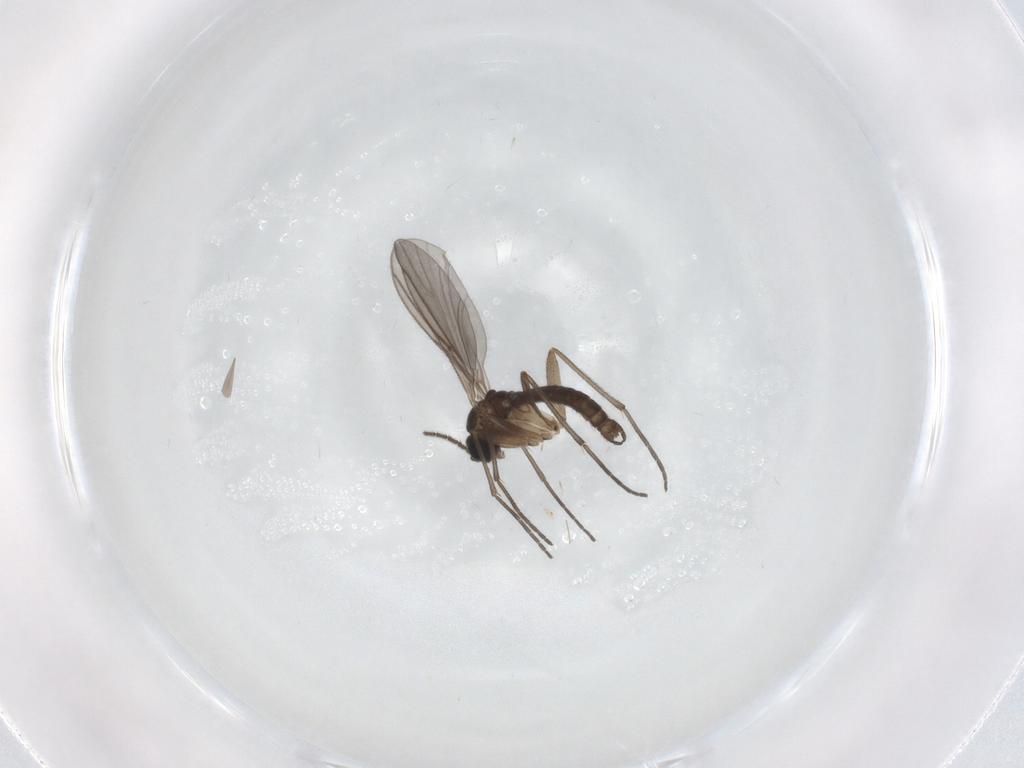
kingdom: Animalia
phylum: Arthropoda
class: Insecta
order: Diptera
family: Sciaridae
